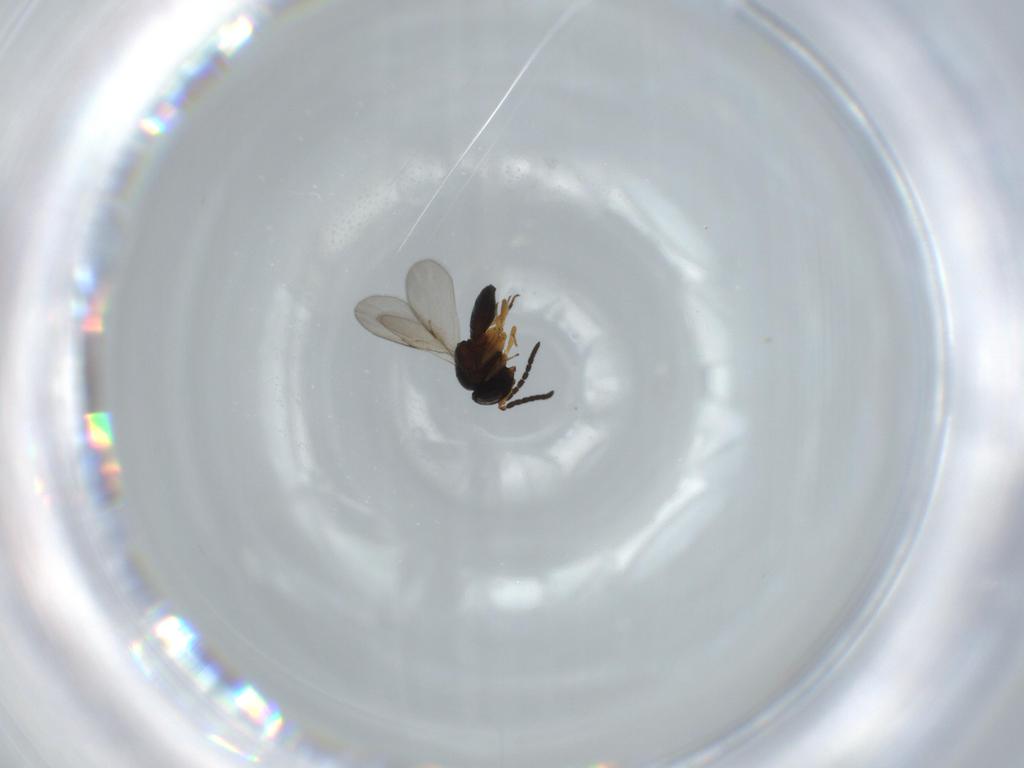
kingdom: Animalia
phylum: Arthropoda
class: Insecta
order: Hymenoptera
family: Scelionidae
